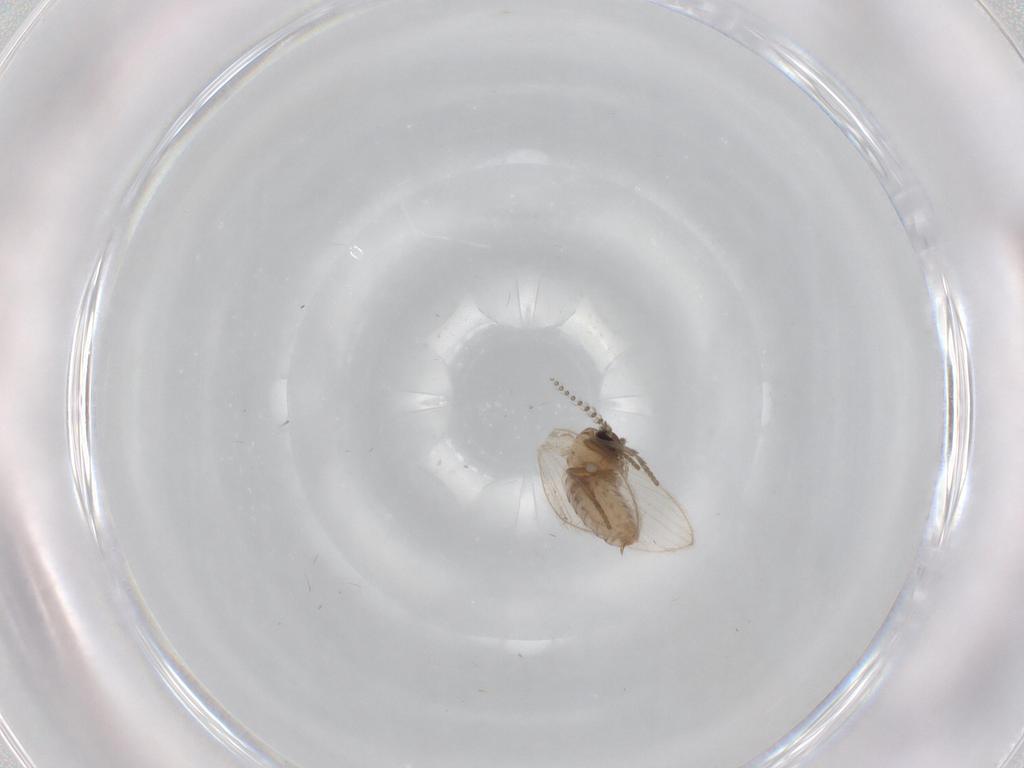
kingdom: Animalia
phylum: Arthropoda
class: Insecta
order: Diptera
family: Psychodidae
